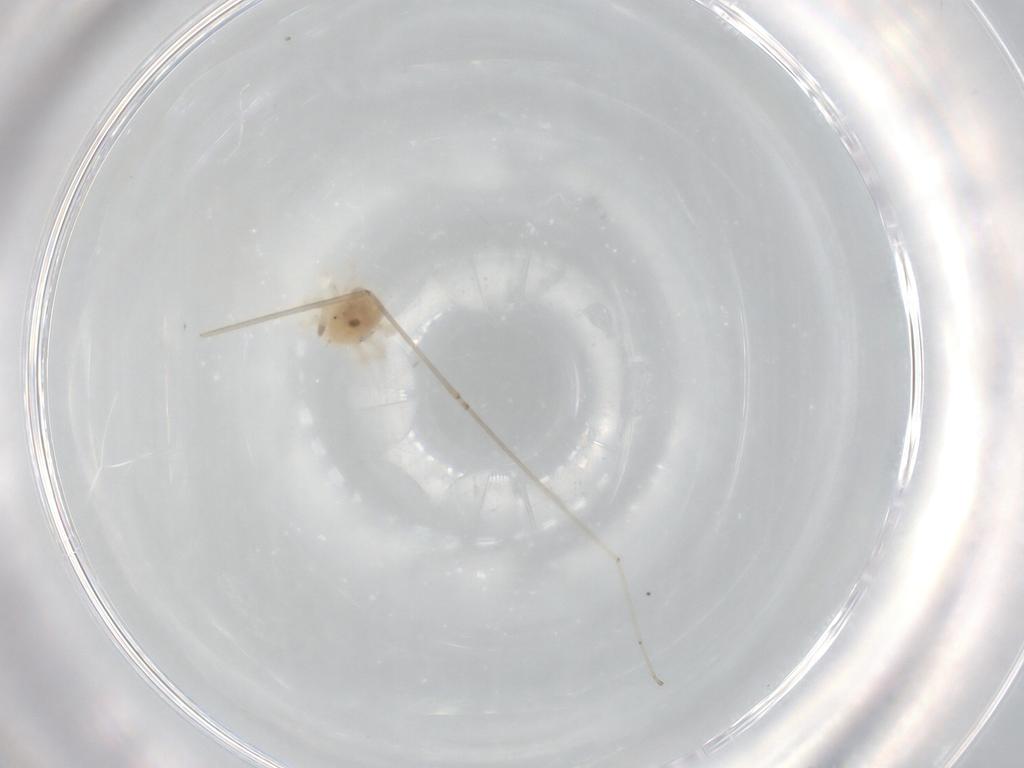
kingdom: Animalia
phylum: Arthropoda
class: Arachnida
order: Trombidiformes
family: Anystidae
